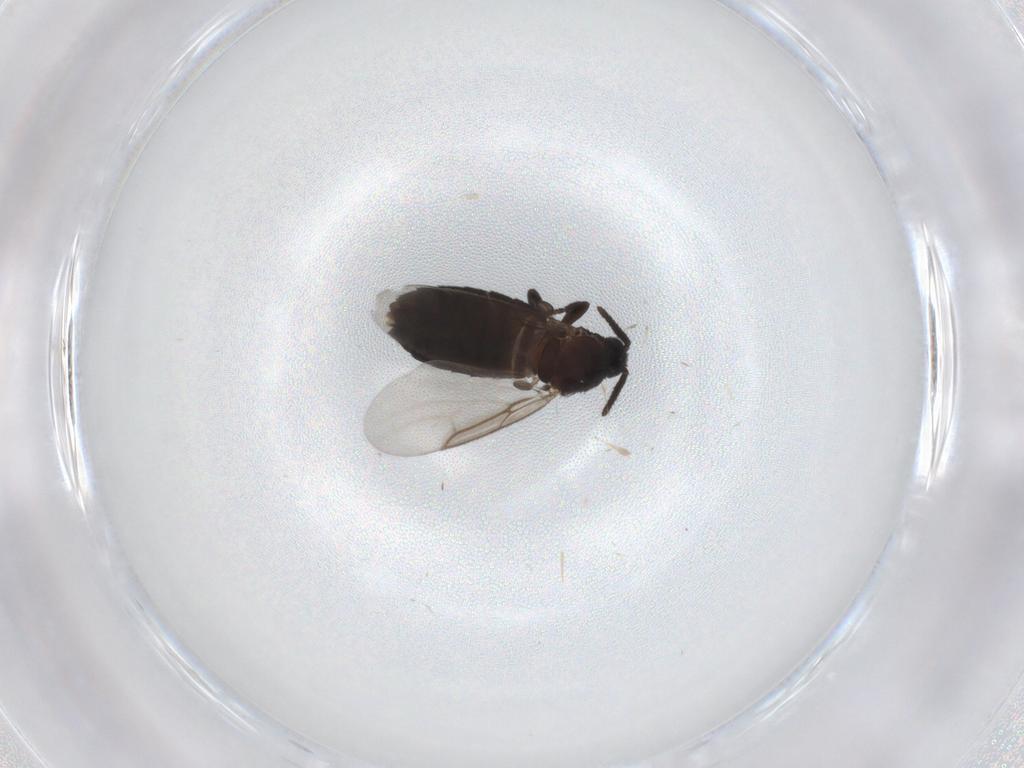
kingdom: Animalia
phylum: Arthropoda
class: Insecta
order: Diptera
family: Scatopsidae
